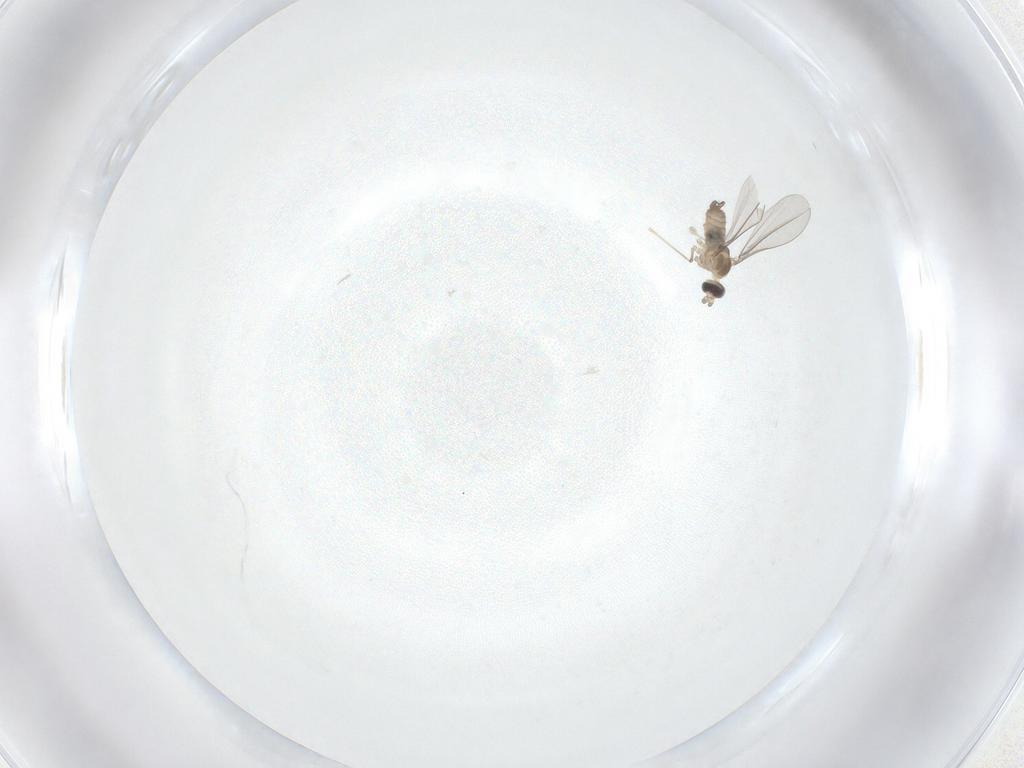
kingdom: Animalia
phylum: Arthropoda
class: Insecta
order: Diptera
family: Cecidomyiidae
